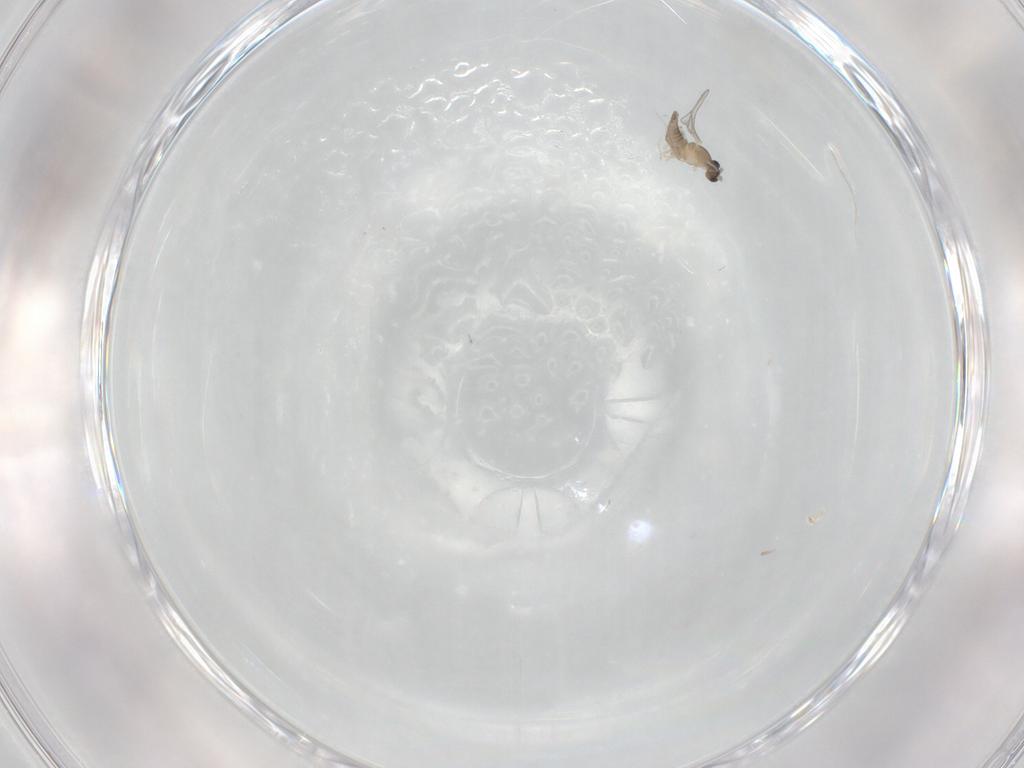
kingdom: Animalia
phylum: Arthropoda
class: Insecta
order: Diptera
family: Cecidomyiidae
